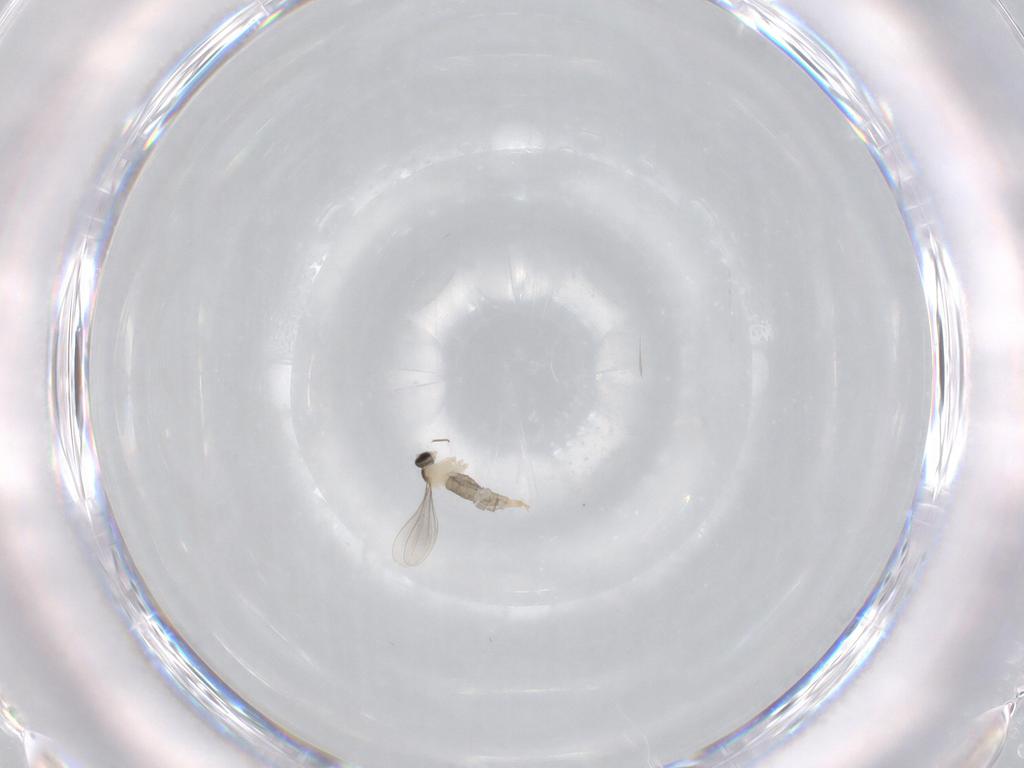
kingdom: Animalia
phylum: Arthropoda
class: Insecta
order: Diptera
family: Cecidomyiidae
